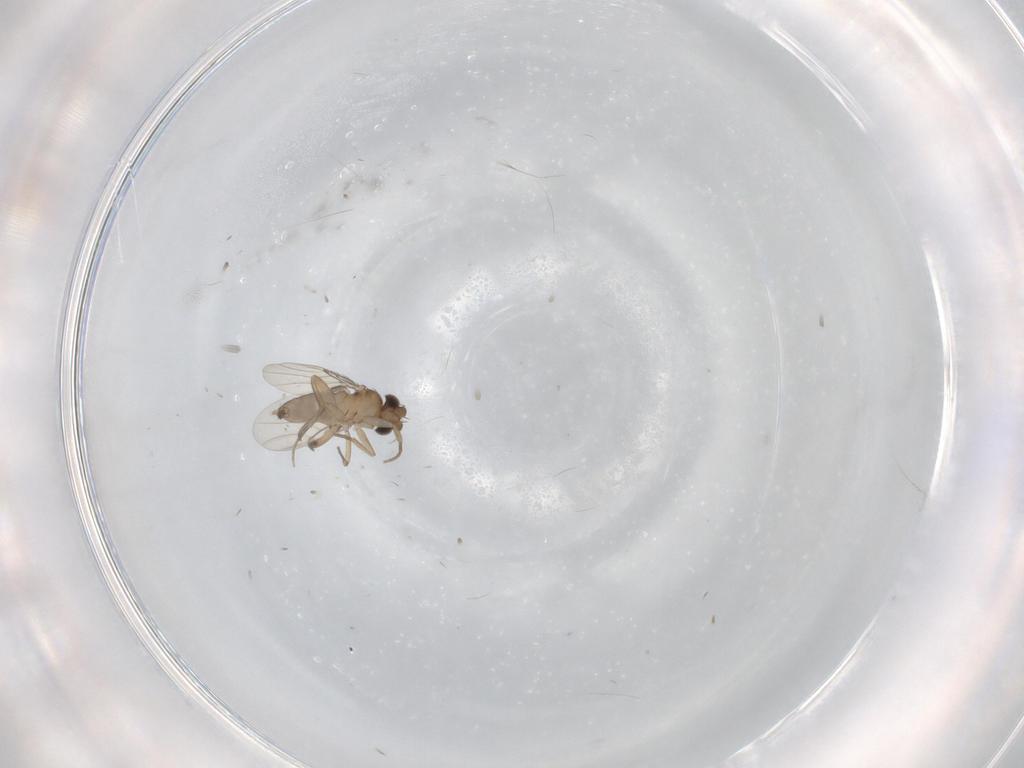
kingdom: Animalia
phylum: Arthropoda
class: Insecta
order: Diptera
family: Phoridae
